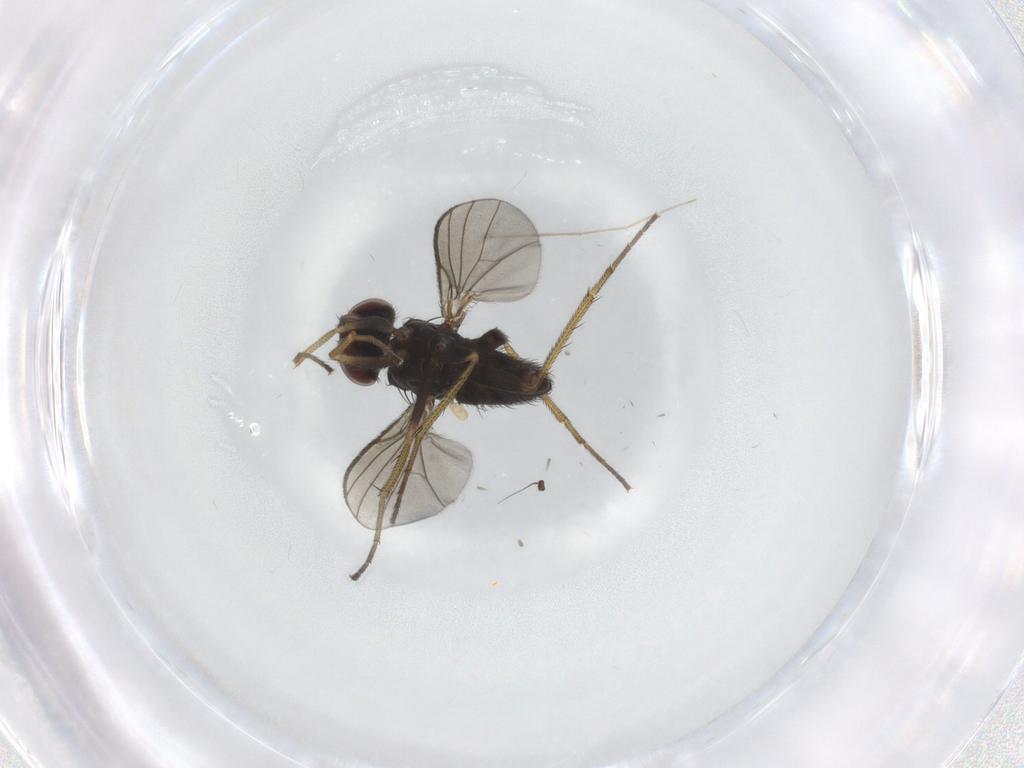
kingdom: Animalia
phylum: Arthropoda
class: Insecta
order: Diptera
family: Dolichopodidae
